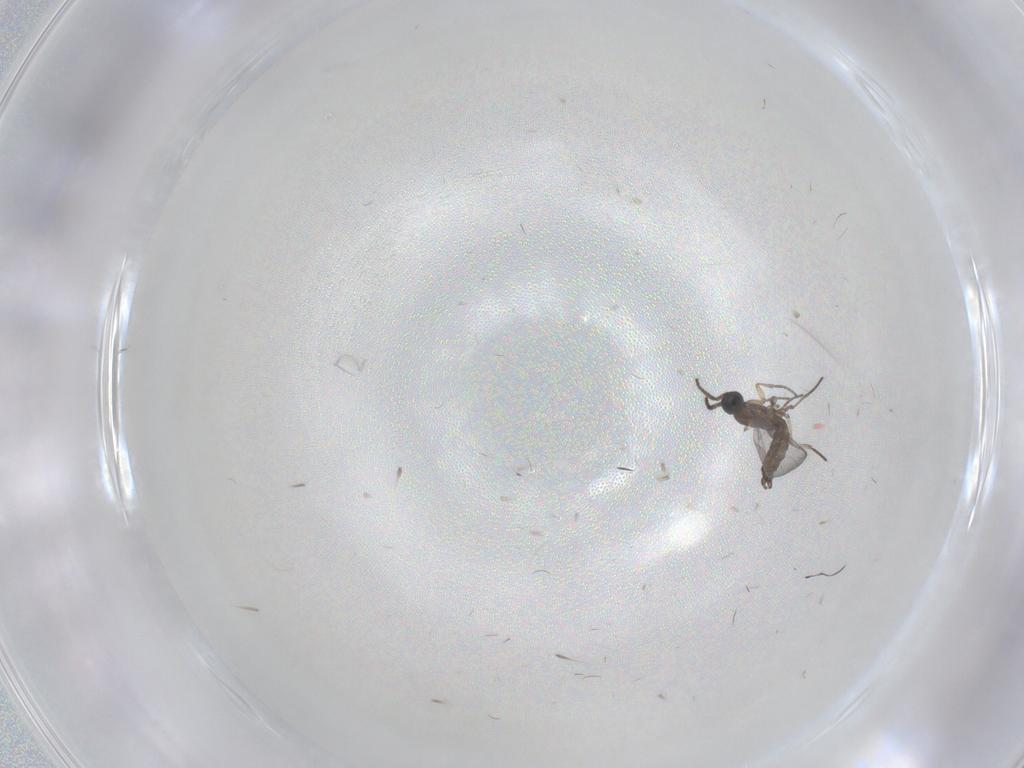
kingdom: Animalia
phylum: Arthropoda
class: Insecta
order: Diptera
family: Sciaridae
